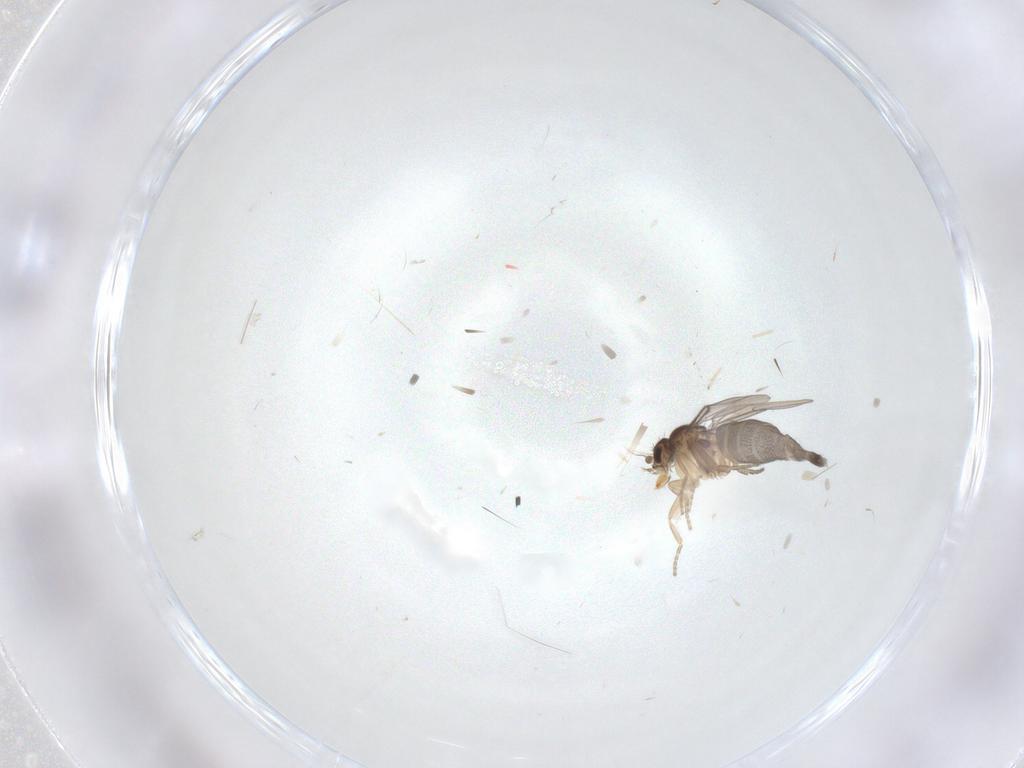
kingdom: Animalia
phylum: Arthropoda
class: Insecta
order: Diptera
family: Phoridae
